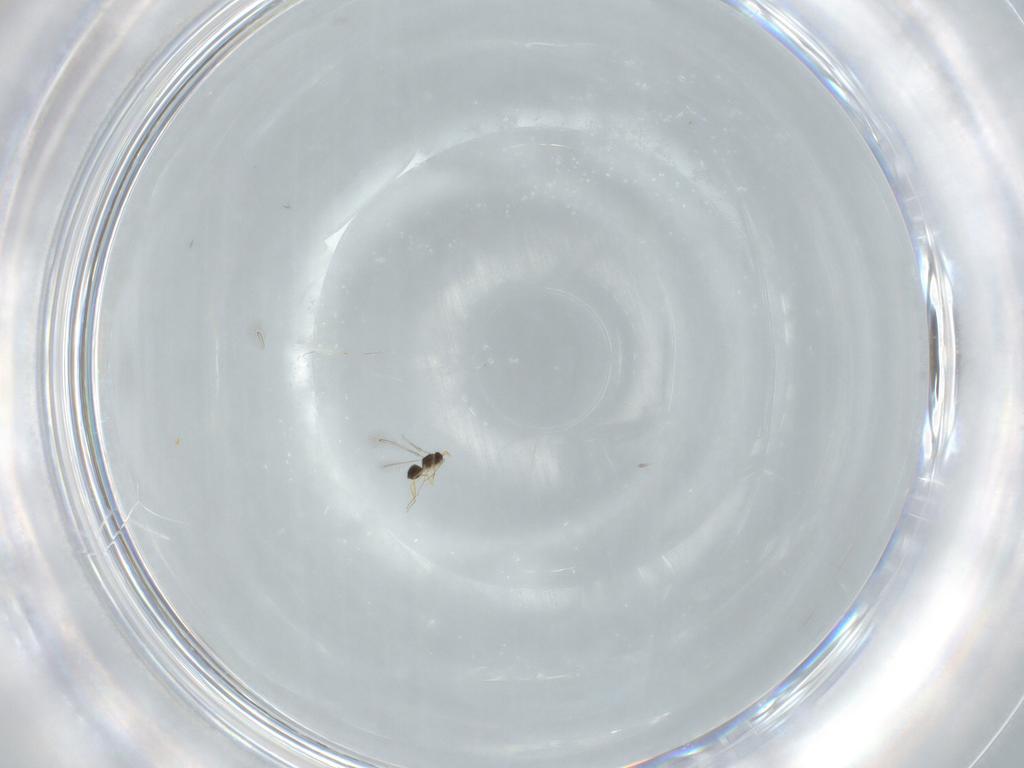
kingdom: Animalia
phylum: Arthropoda
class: Insecta
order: Hymenoptera
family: Mymaridae
